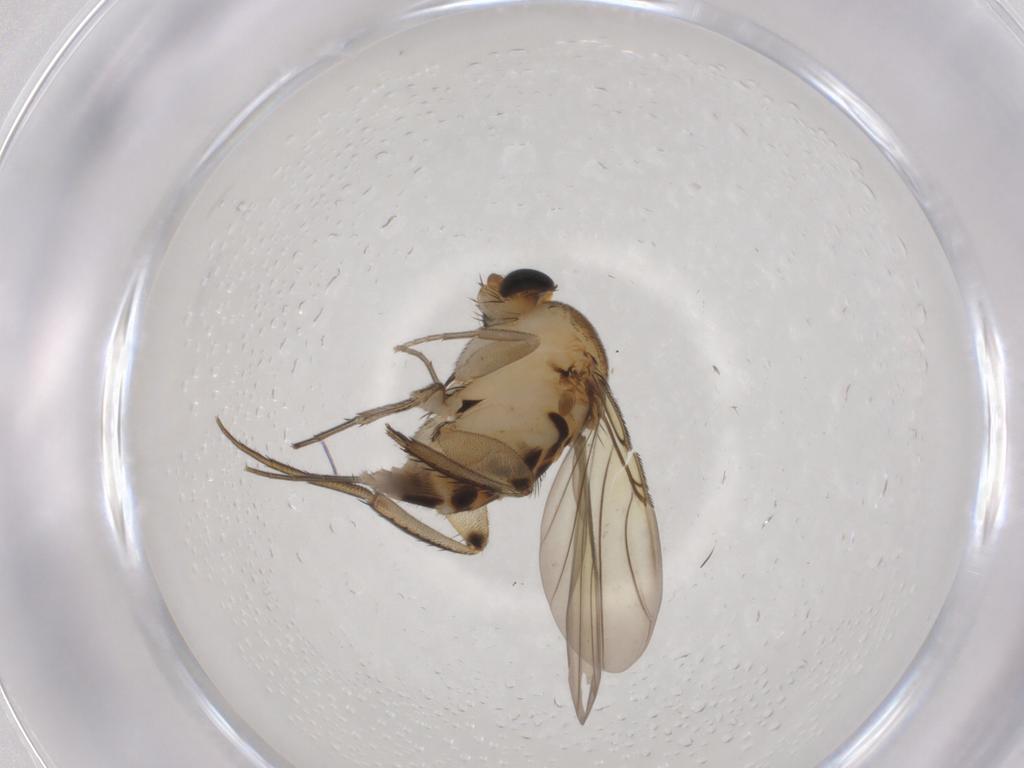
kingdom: Animalia
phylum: Arthropoda
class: Insecta
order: Diptera
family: Phoridae
